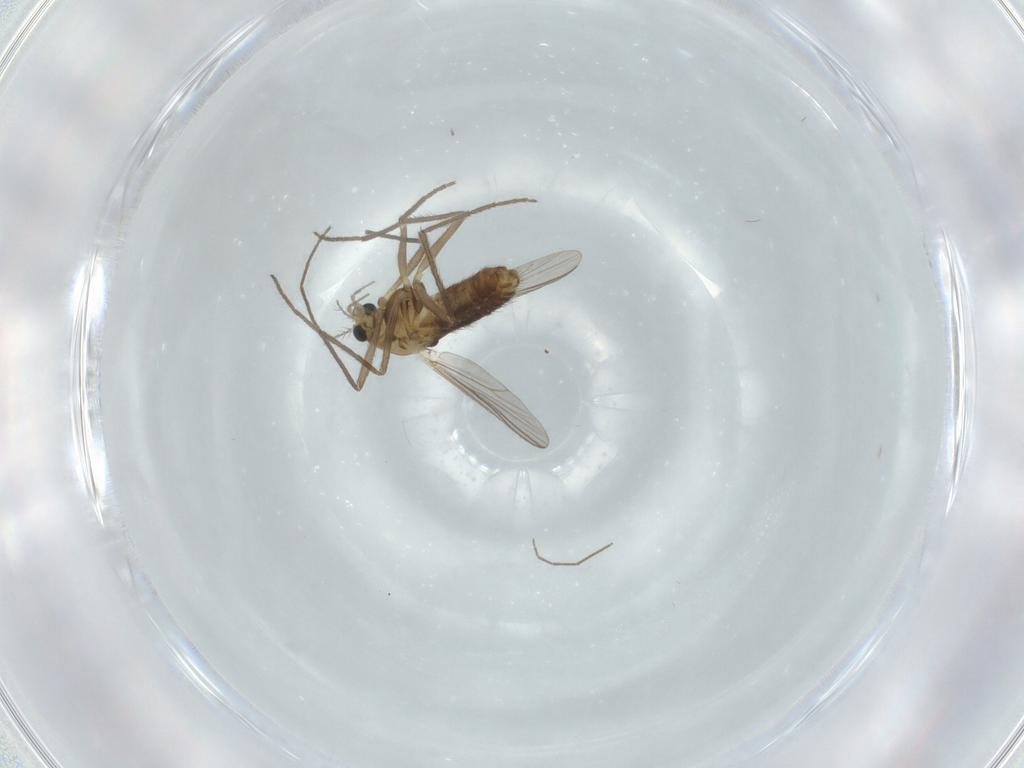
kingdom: Animalia
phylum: Arthropoda
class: Insecta
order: Diptera
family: Chironomidae
